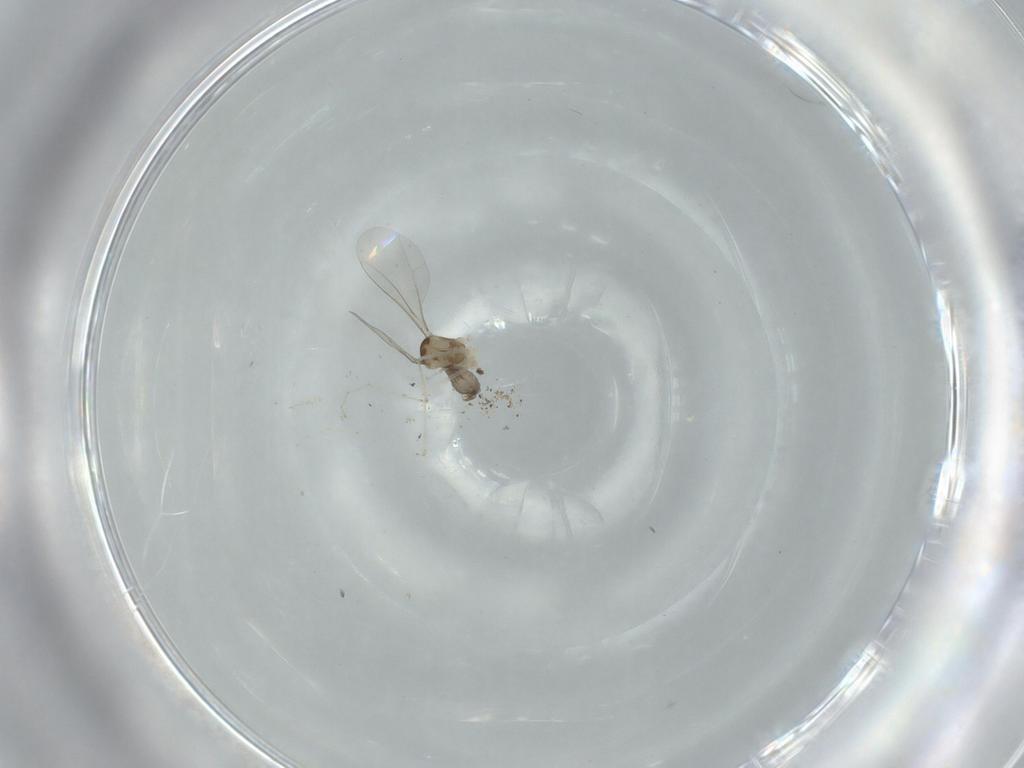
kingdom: Animalia
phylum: Arthropoda
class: Insecta
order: Diptera
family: Cecidomyiidae
